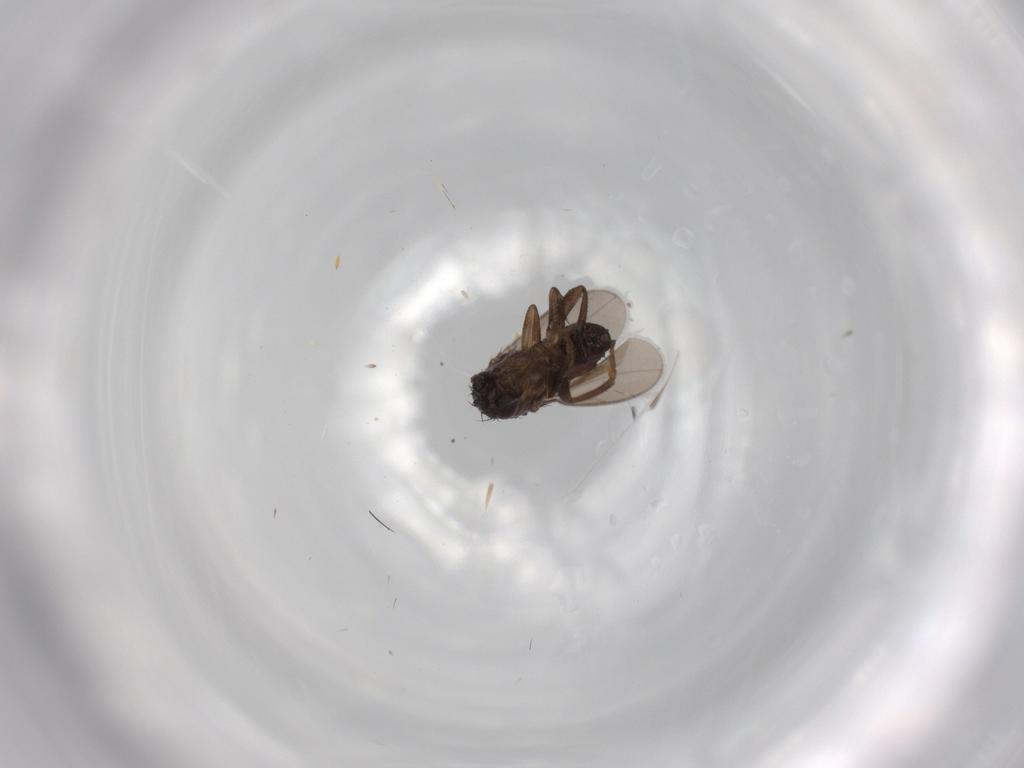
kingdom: Animalia
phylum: Arthropoda
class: Insecta
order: Diptera
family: Sphaeroceridae
